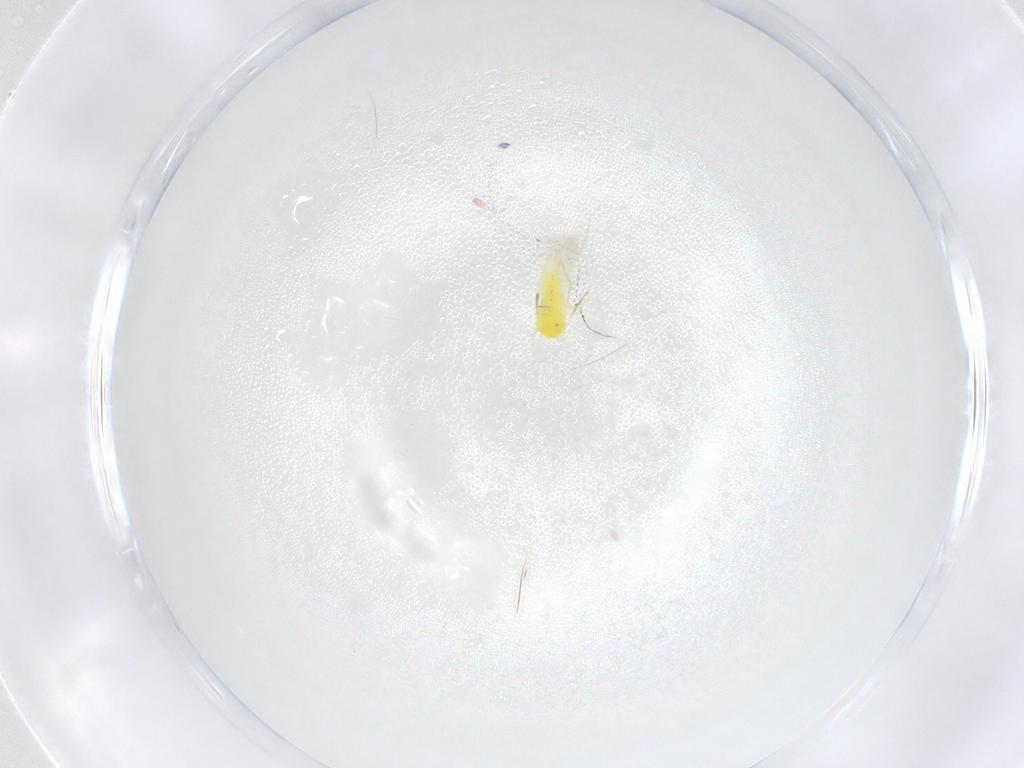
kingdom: Animalia
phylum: Arthropoda
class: Insecta
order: Hemiptera
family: Aleyrodidae
